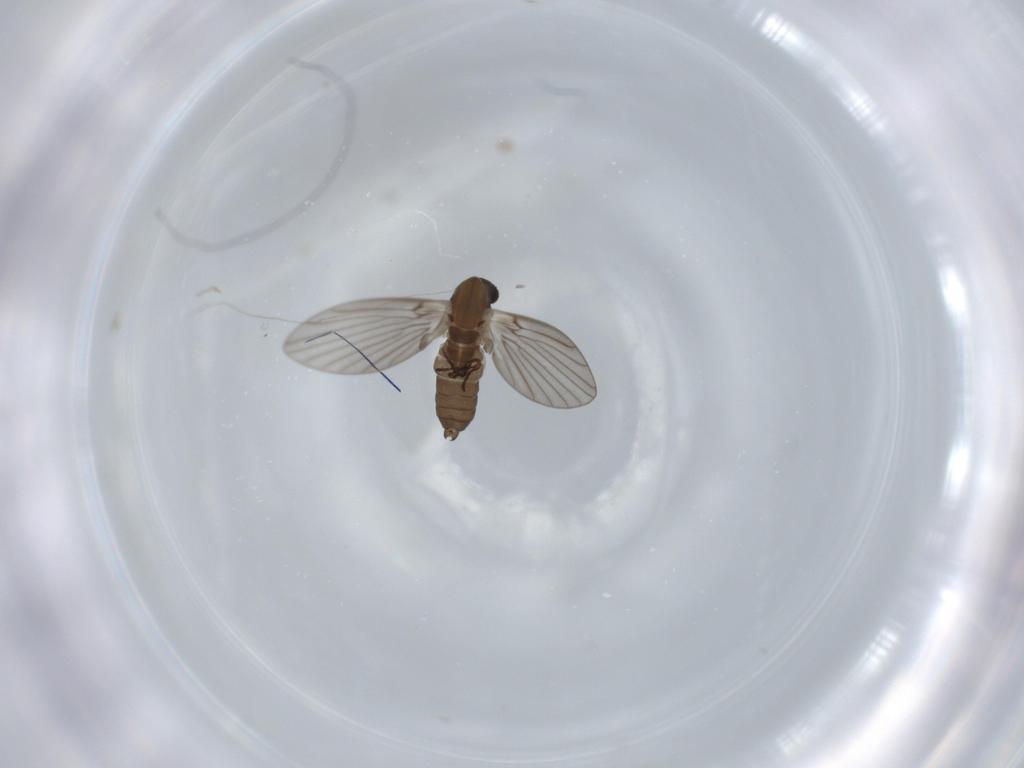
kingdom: Animalia
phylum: Arthropoda
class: Insecta
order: Diptera
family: Psychodidae
